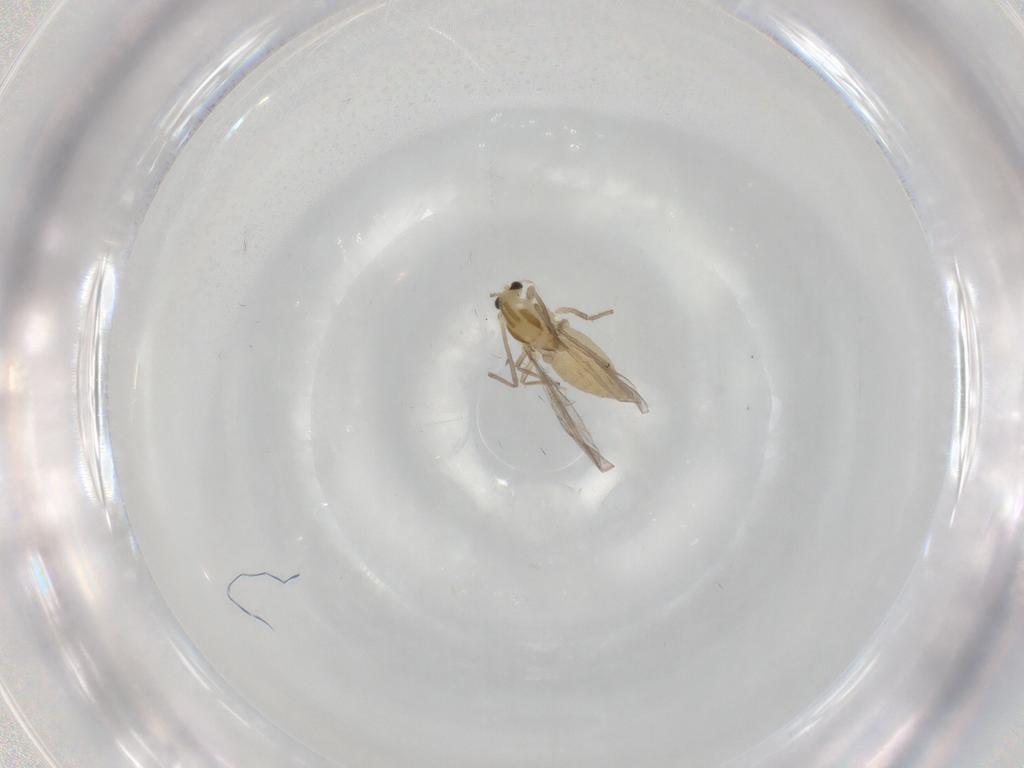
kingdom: Animalia
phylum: Arthropoda
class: Insecta
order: Diptera
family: Chironomidae
